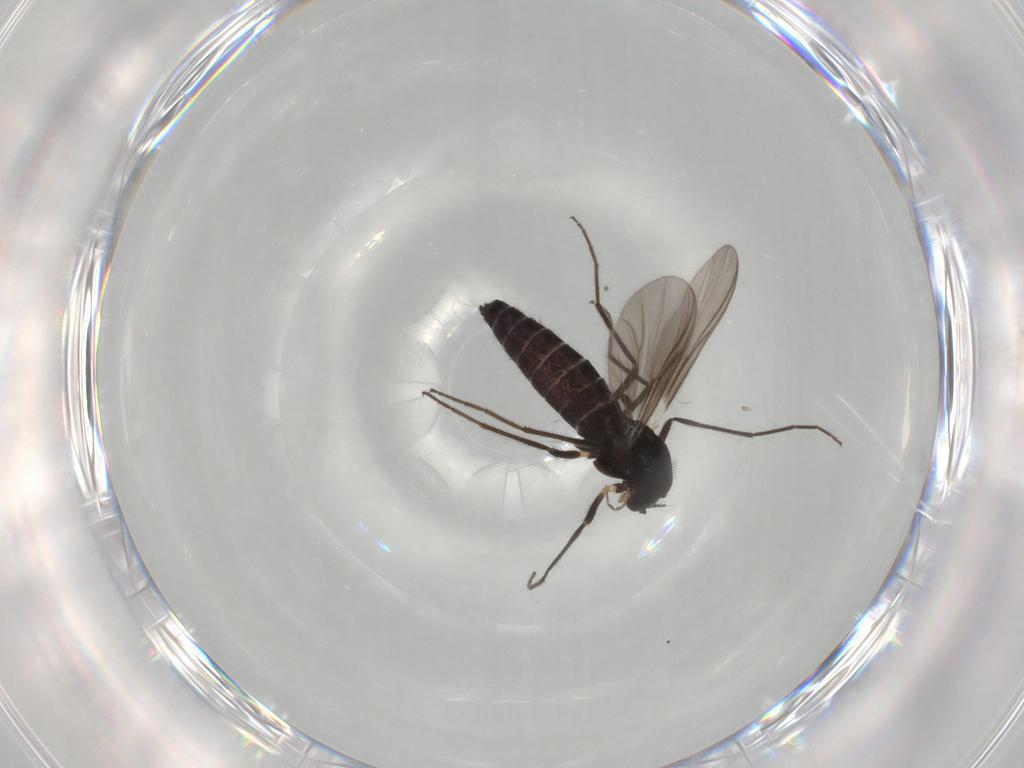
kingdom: Animalia
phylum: Arthropoda
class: Insecta
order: Diptera
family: Chironomidae
